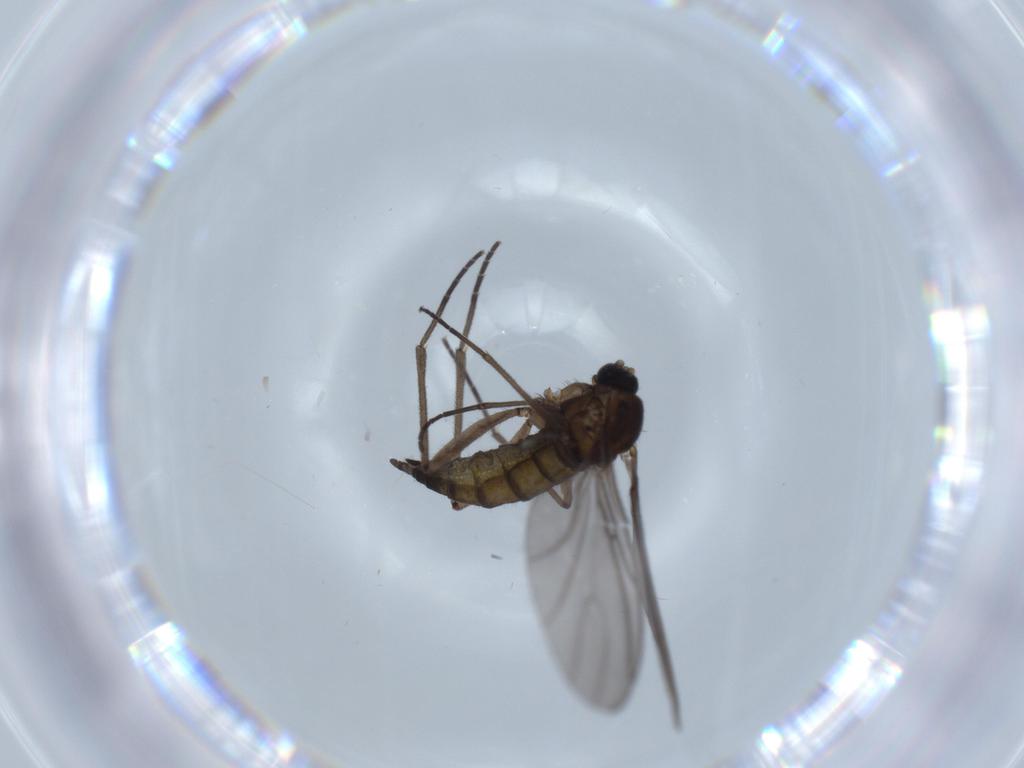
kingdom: Animalia
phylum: Arthropoda
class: Insecta
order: Diptera
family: Sciaridae
